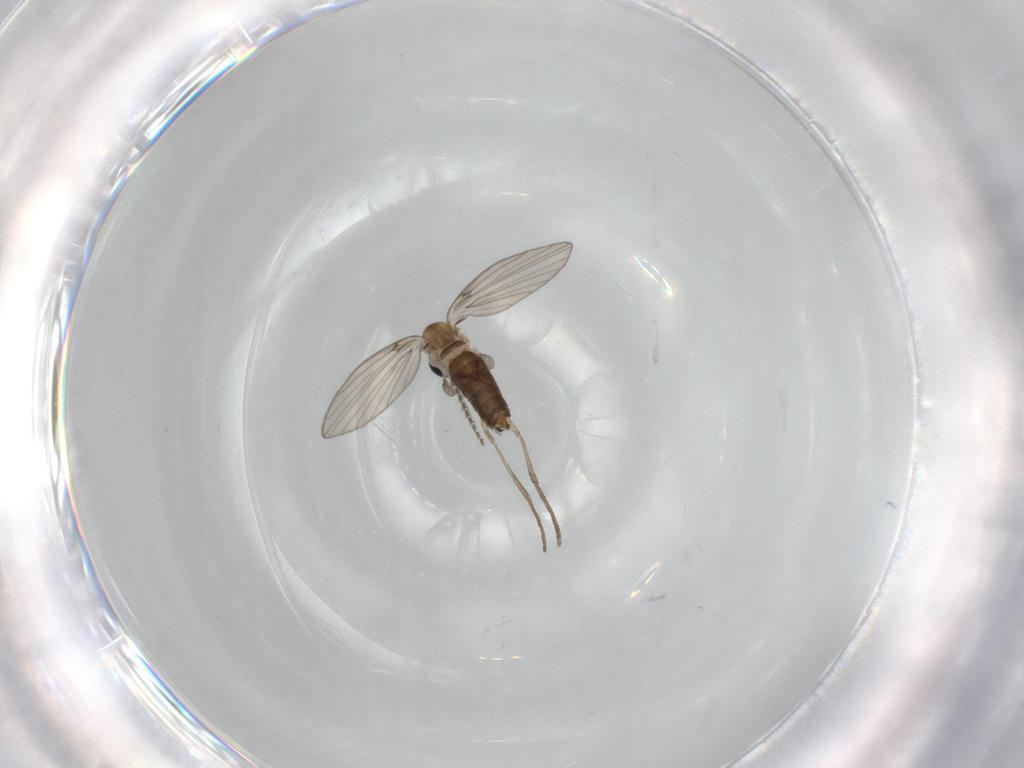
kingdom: Animalia
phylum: Arthropoda
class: Insecta
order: Diptera
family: Psychodidae
